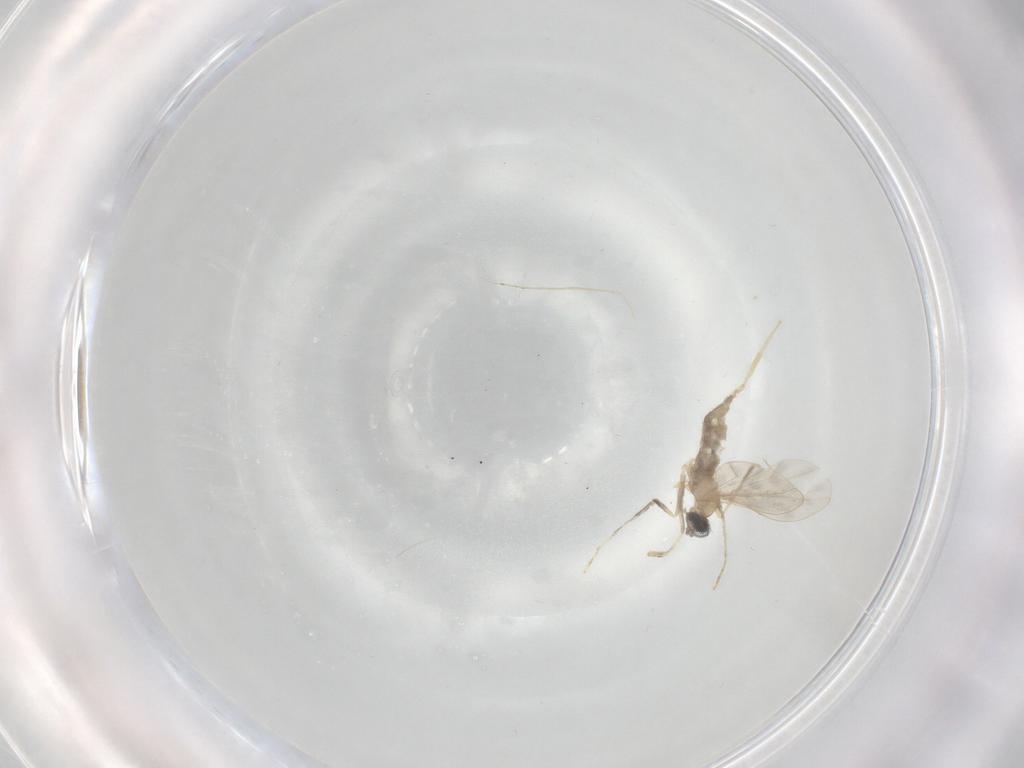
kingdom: Animalia
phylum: Arthropoda
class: Insecta
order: Diptera
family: Cecidomyiidae
